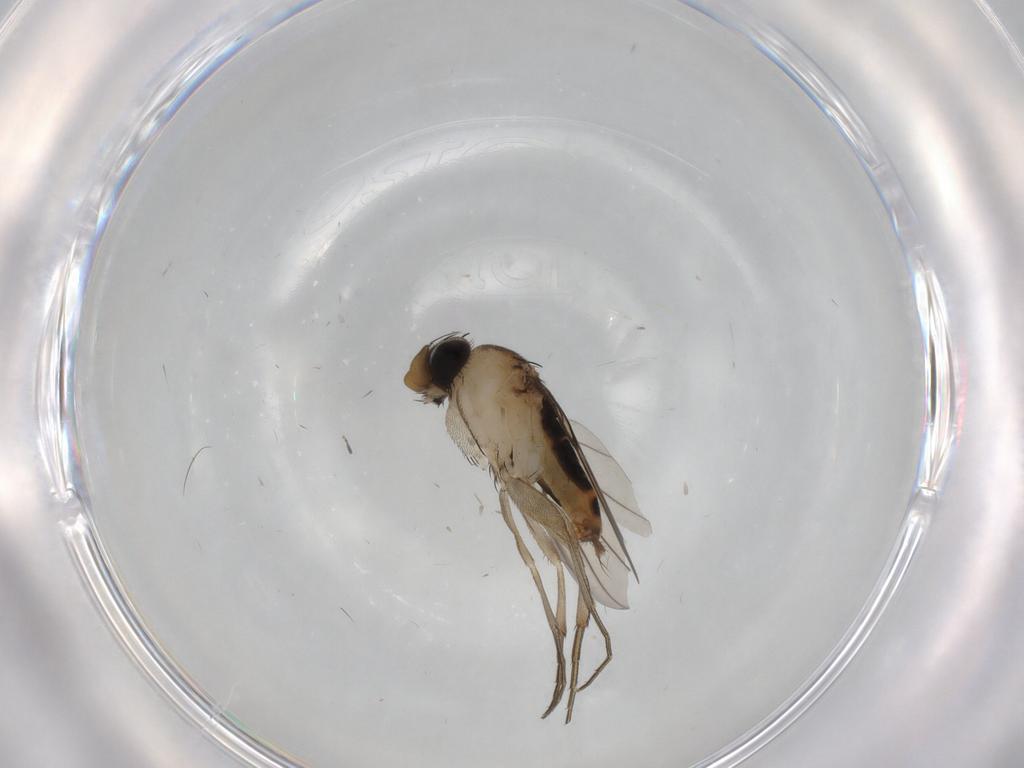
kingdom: Animalia
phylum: Arthropoda
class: Insecta
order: Diptera
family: Phoridae
